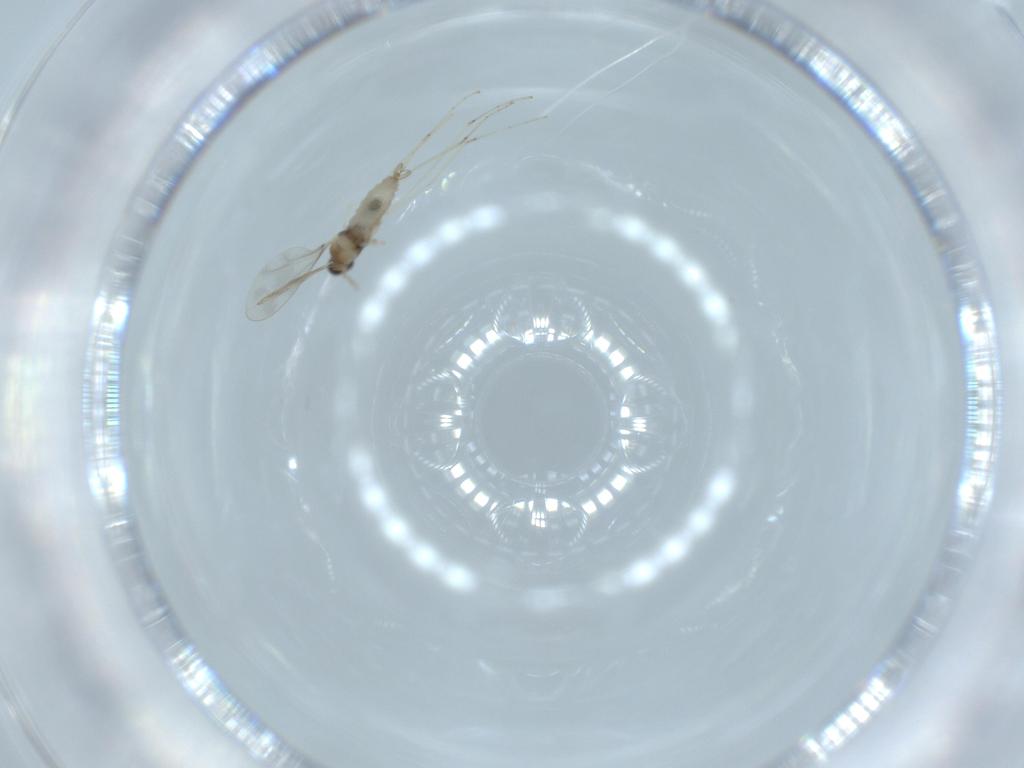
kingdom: Animalia
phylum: Arthropoda
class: Insecta
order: Diptera
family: Cecidomyiidae
